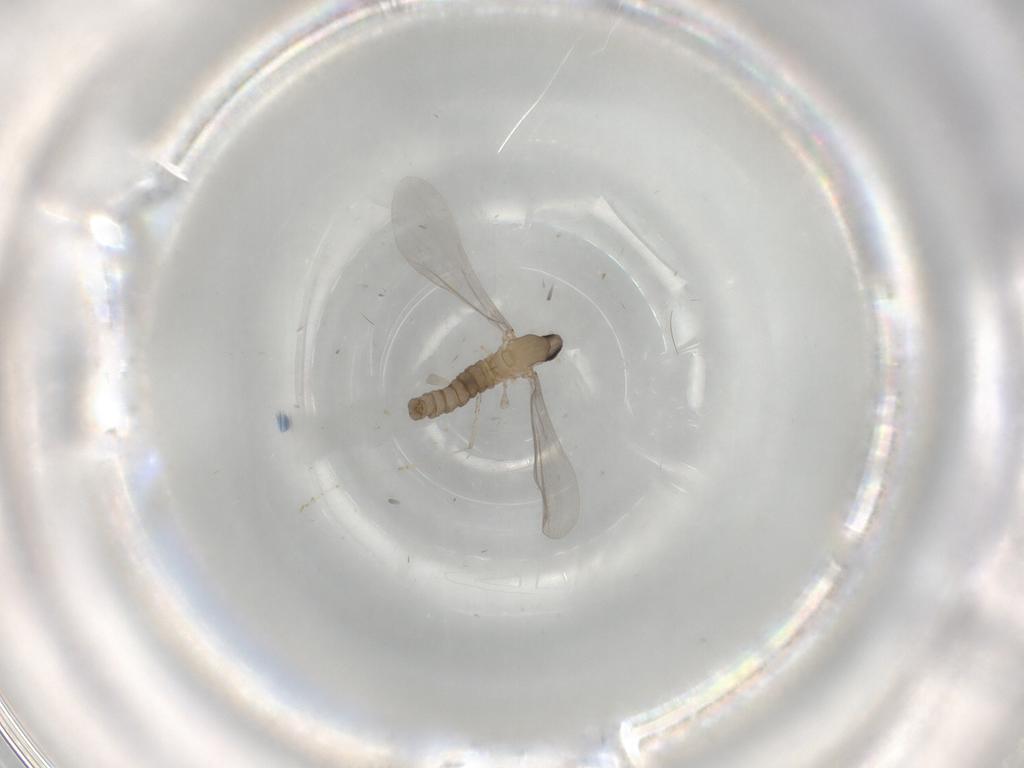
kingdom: Animalia
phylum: Arthropoda
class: Insecta
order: Diptera
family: Cecidomyiidae
